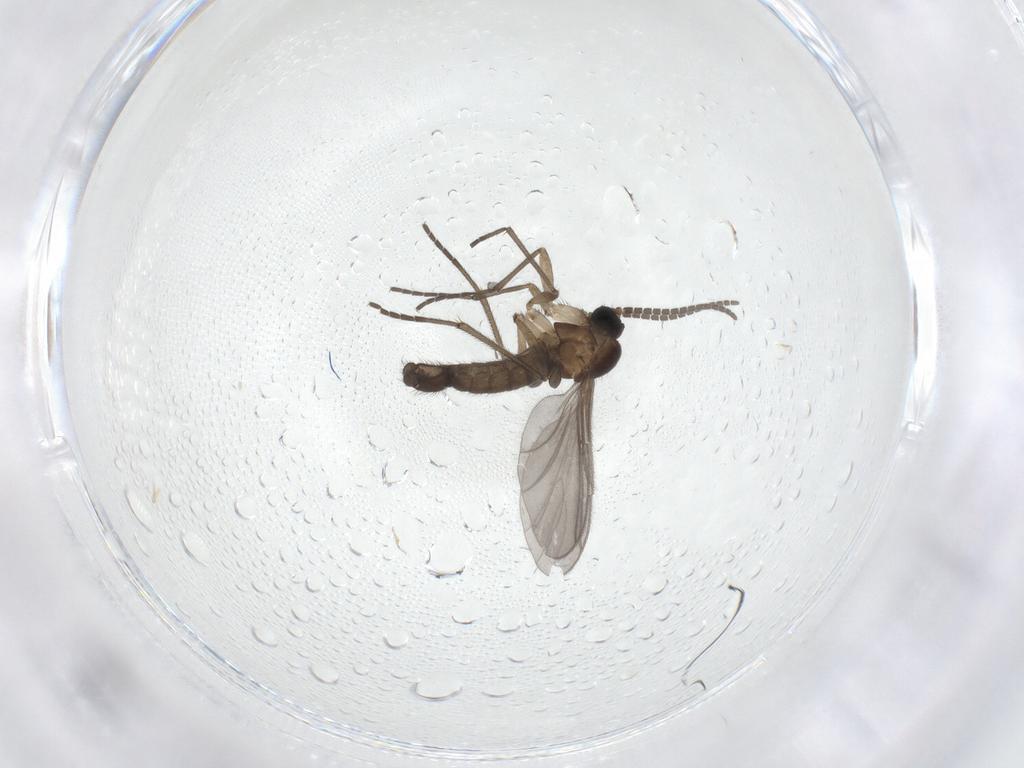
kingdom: Animalia
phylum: Arthropoda
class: Insecta
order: Diptera
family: Sciaridae
